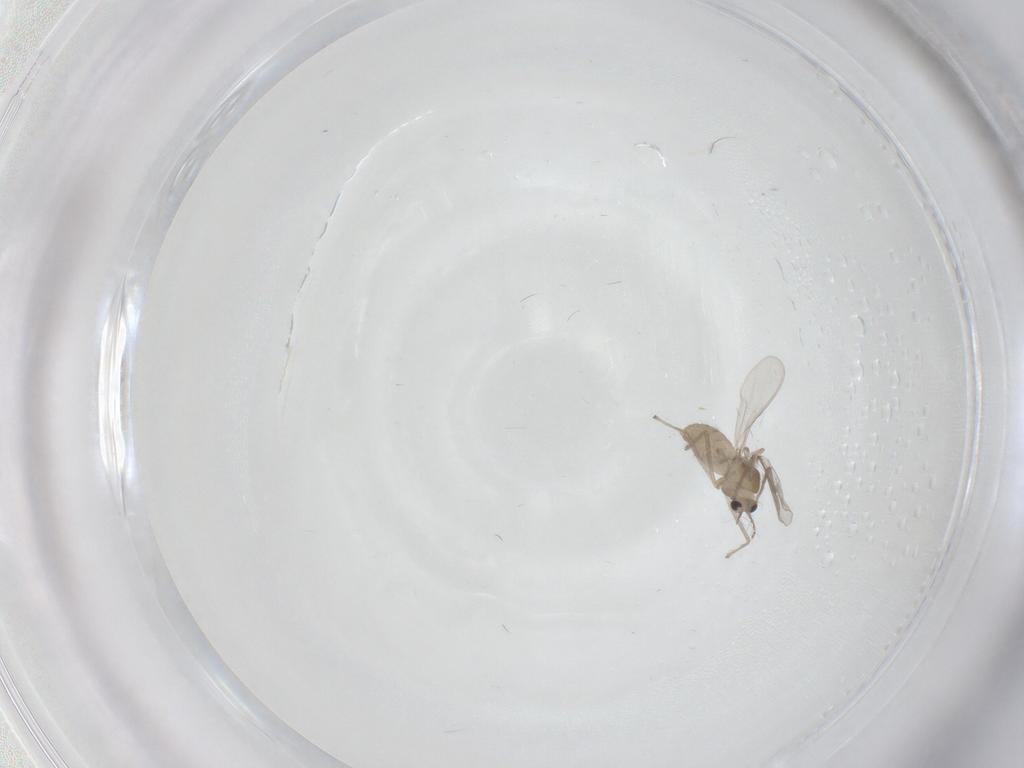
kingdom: Animalia
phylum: Arthropoda
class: Insecta
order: Diptera
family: Chironomidae
